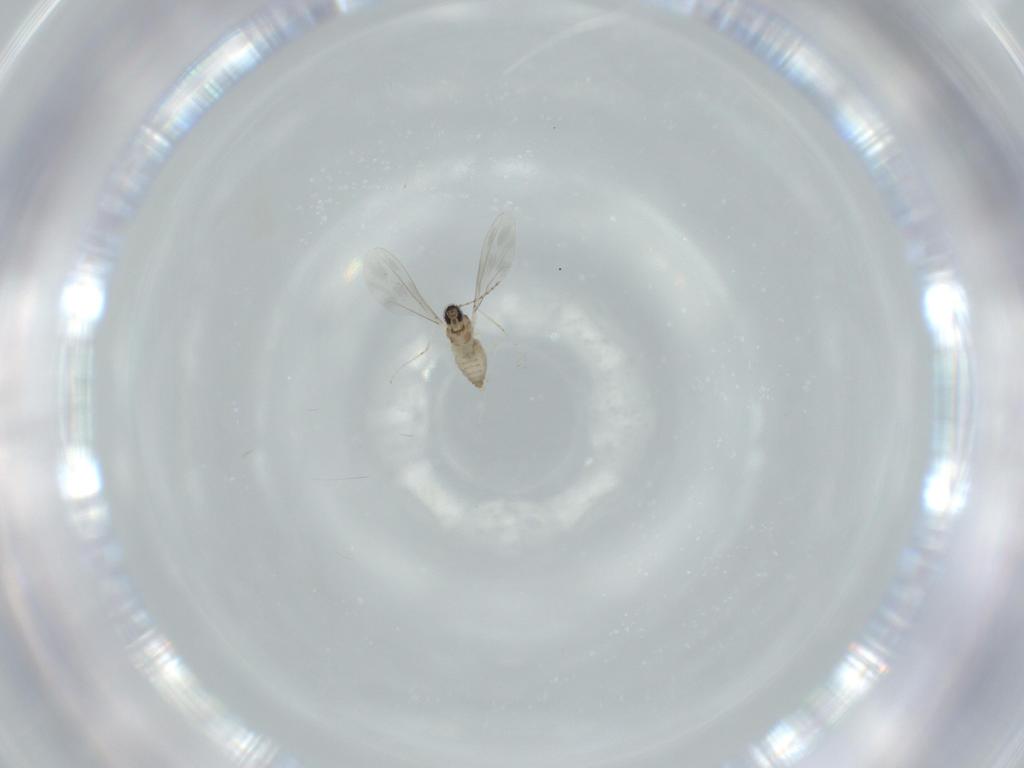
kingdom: Animalia
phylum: Arthropoda
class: Insecta
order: Diptera
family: Cecidomyiidae
